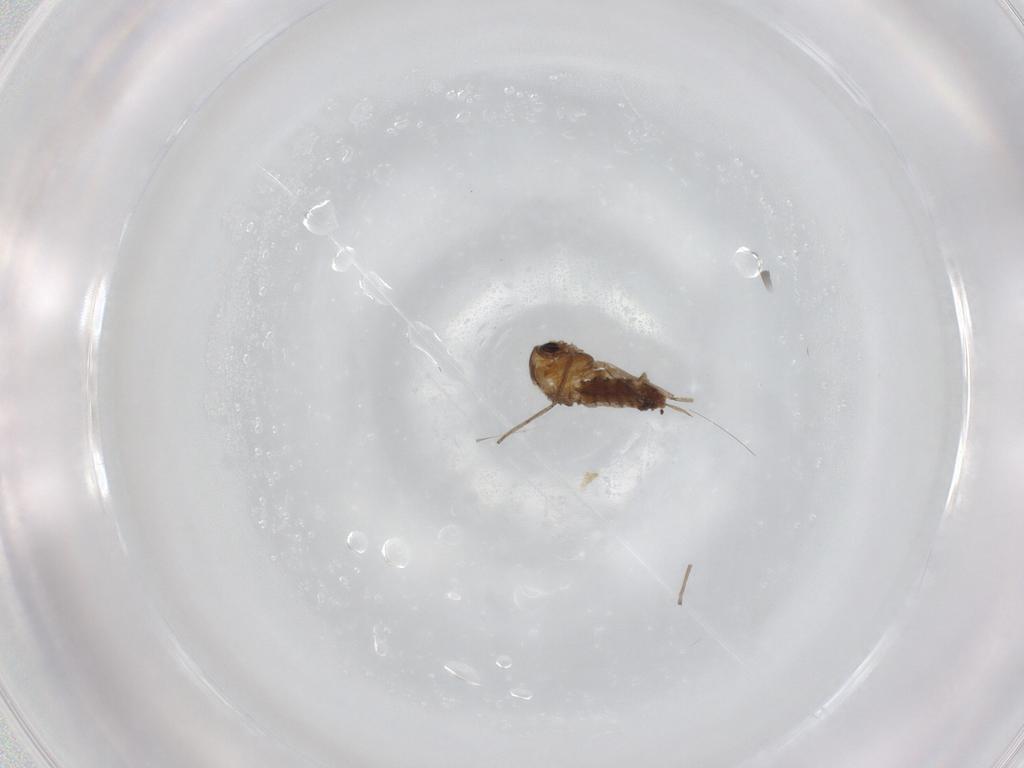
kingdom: Animalia
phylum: Arthropoda
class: Insecta
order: Diptera
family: Chironomidae
